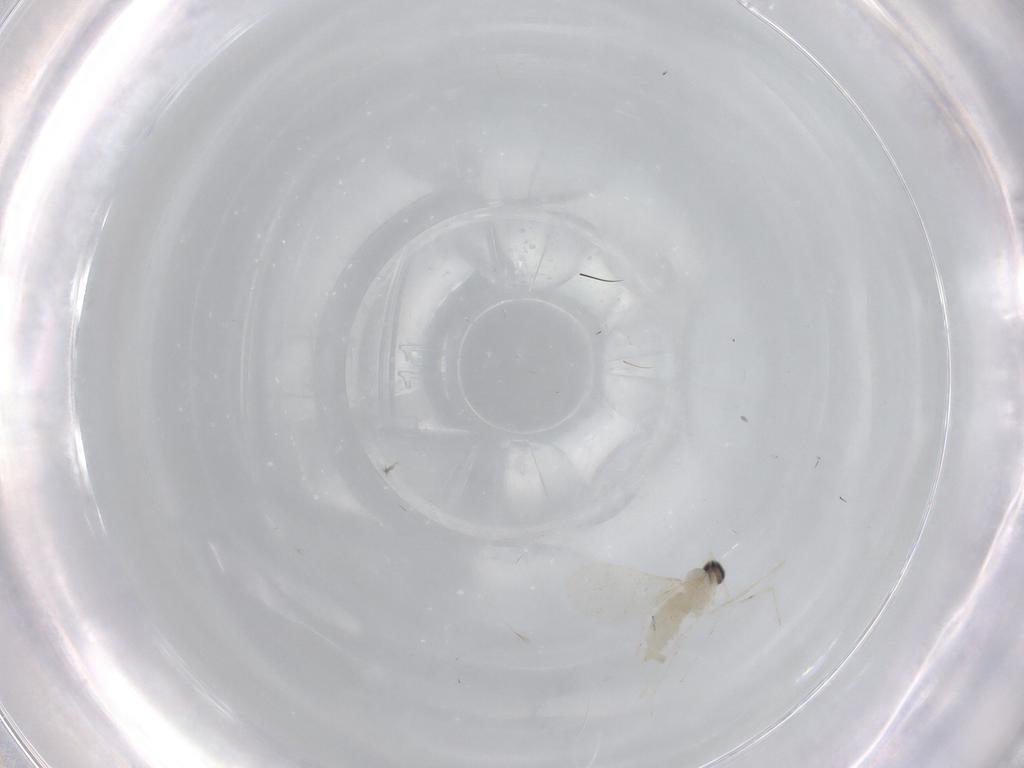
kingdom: Animalia
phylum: Arthropoda
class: Insecta
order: Diptera
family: Cecidomyiidae
